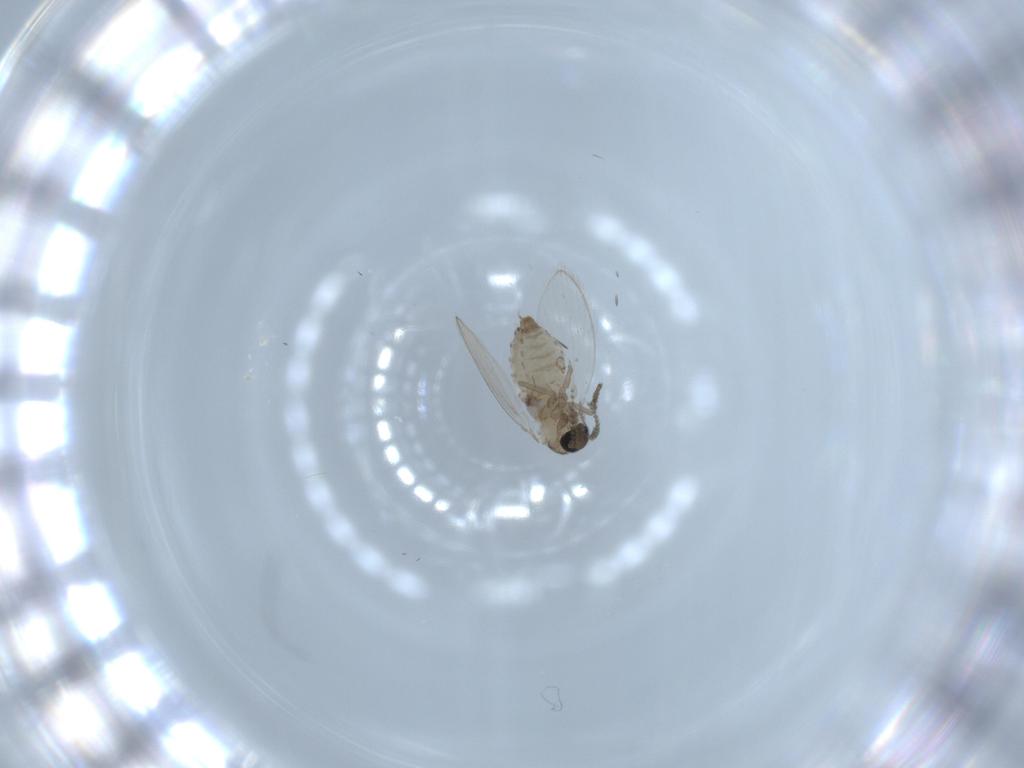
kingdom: Animalia
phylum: Arthropoda
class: Insecta
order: Diptera
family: Psychodidae
